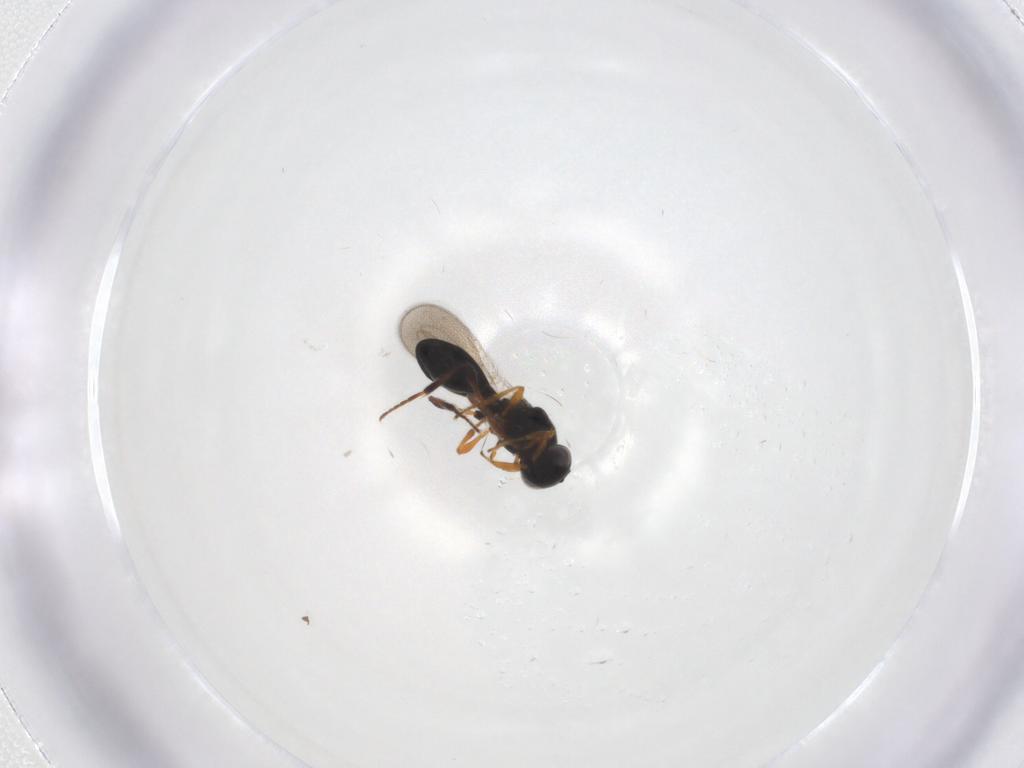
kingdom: Animalia
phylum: Arthropoda
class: Insecta
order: Hymenoptera
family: Platygastridae
